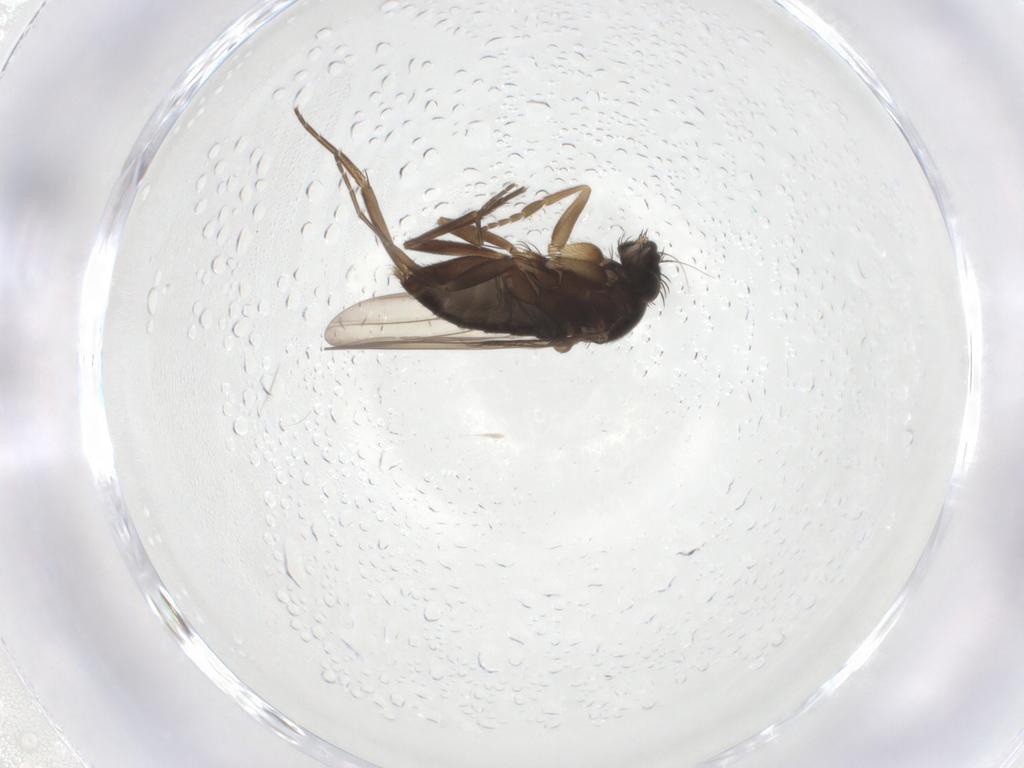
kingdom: Animalia
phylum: Arthropoda
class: Insecta
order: Diptera
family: Phoridae
